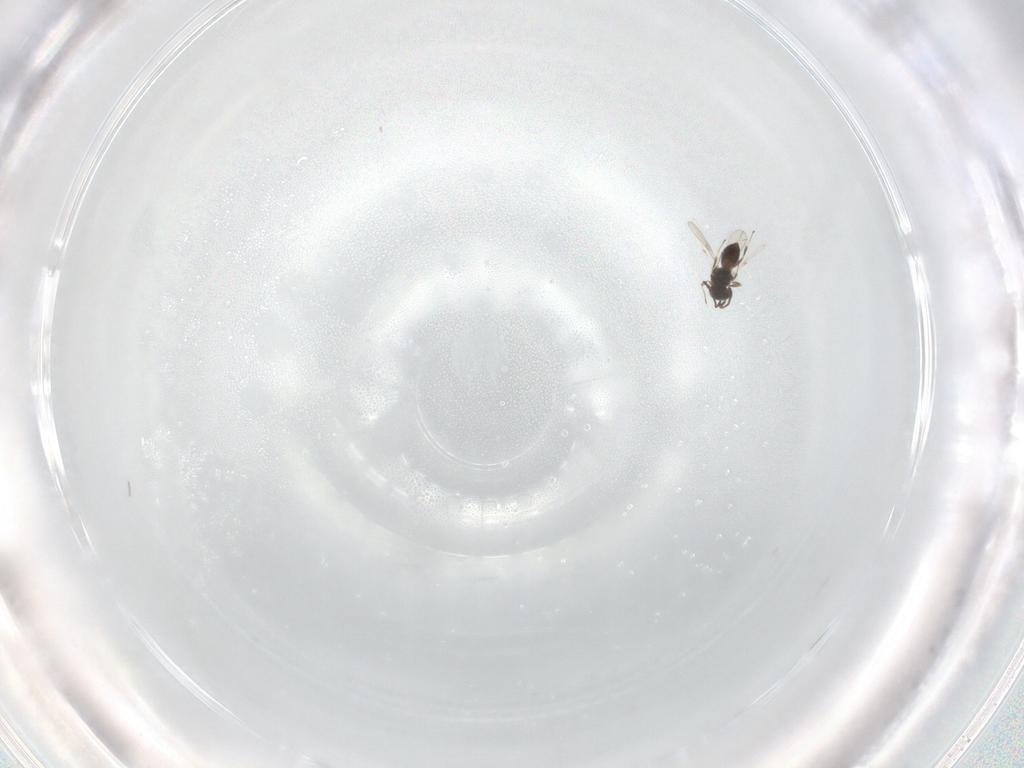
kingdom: Animalia
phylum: Arthropoda
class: Insecta
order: Hymenoptera
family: Scelionidae
